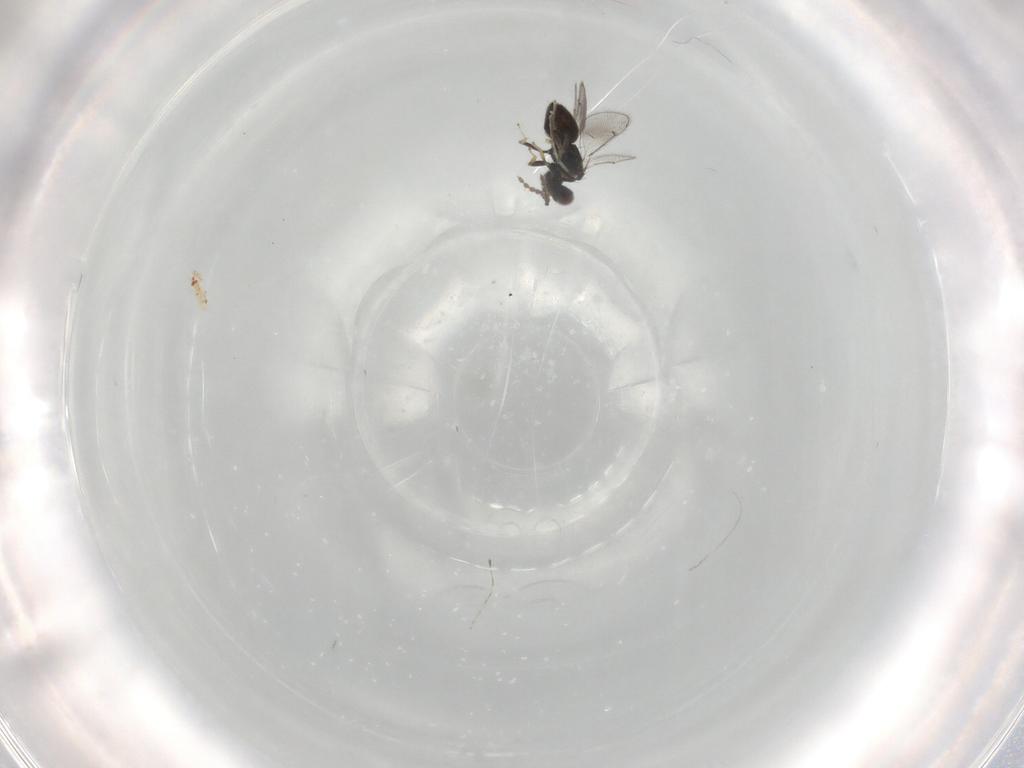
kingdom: Animalia
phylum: Arthropoda
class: Insecta
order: Hymenoptera
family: Eulophidae
